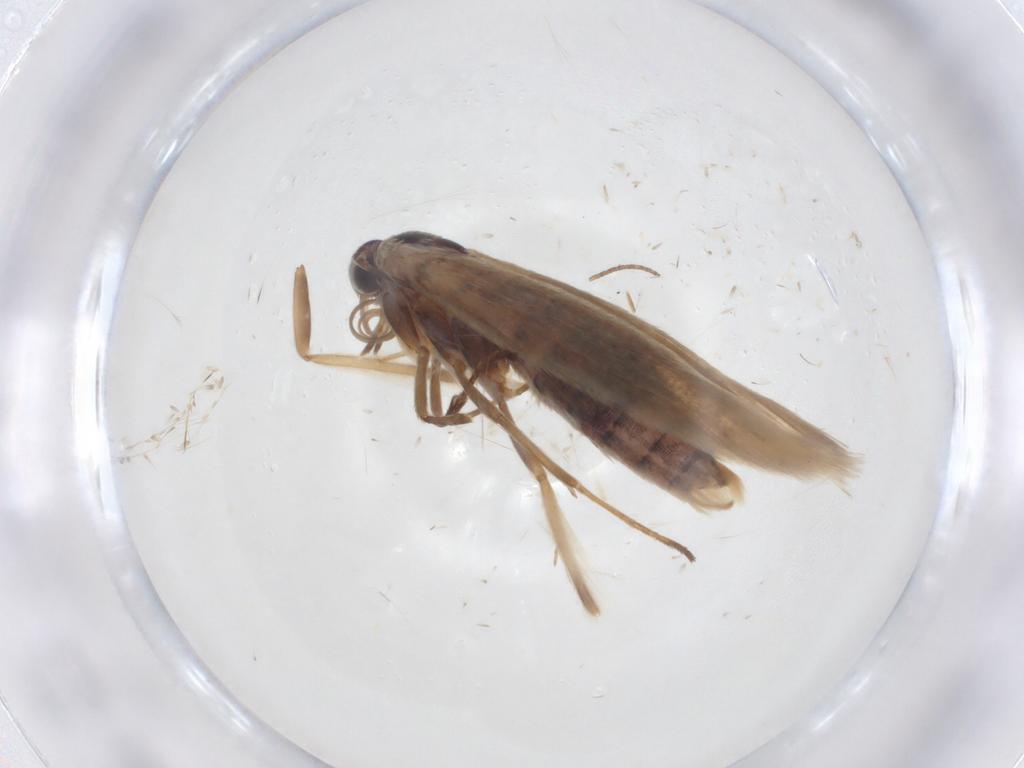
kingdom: Animalia
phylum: Arthropoda
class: Insecta
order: Lepidoptera
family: Gelechiidae
